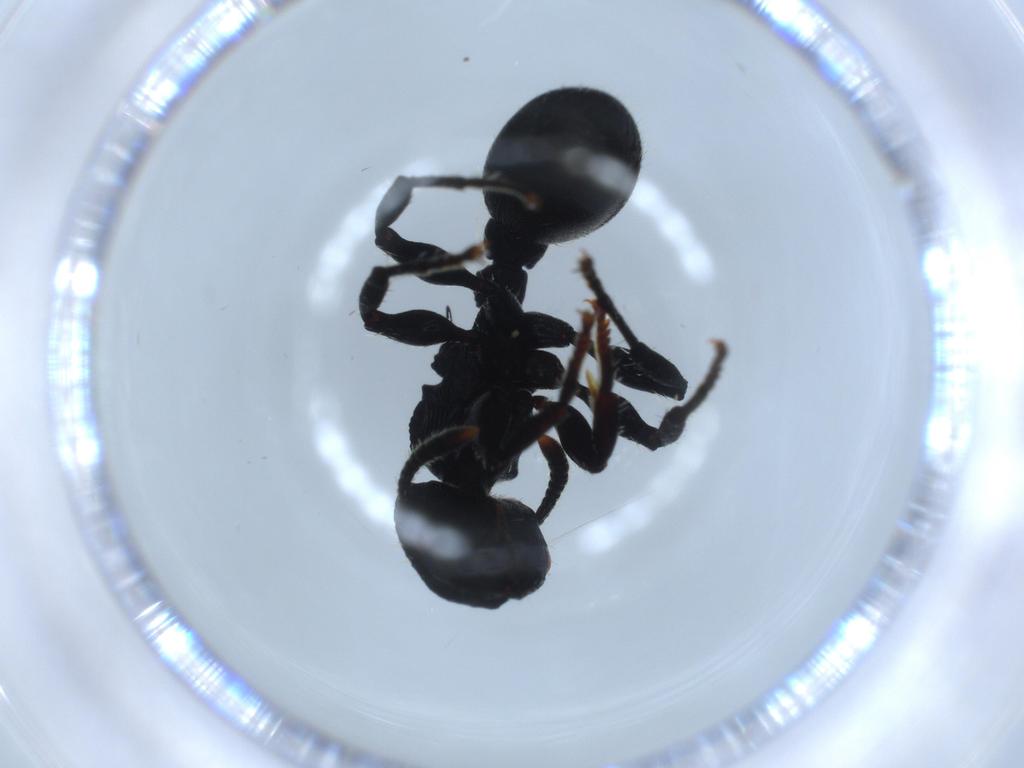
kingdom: Animalia
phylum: Arthropoda
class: Insecta
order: Hymenoptera
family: Formicidae
